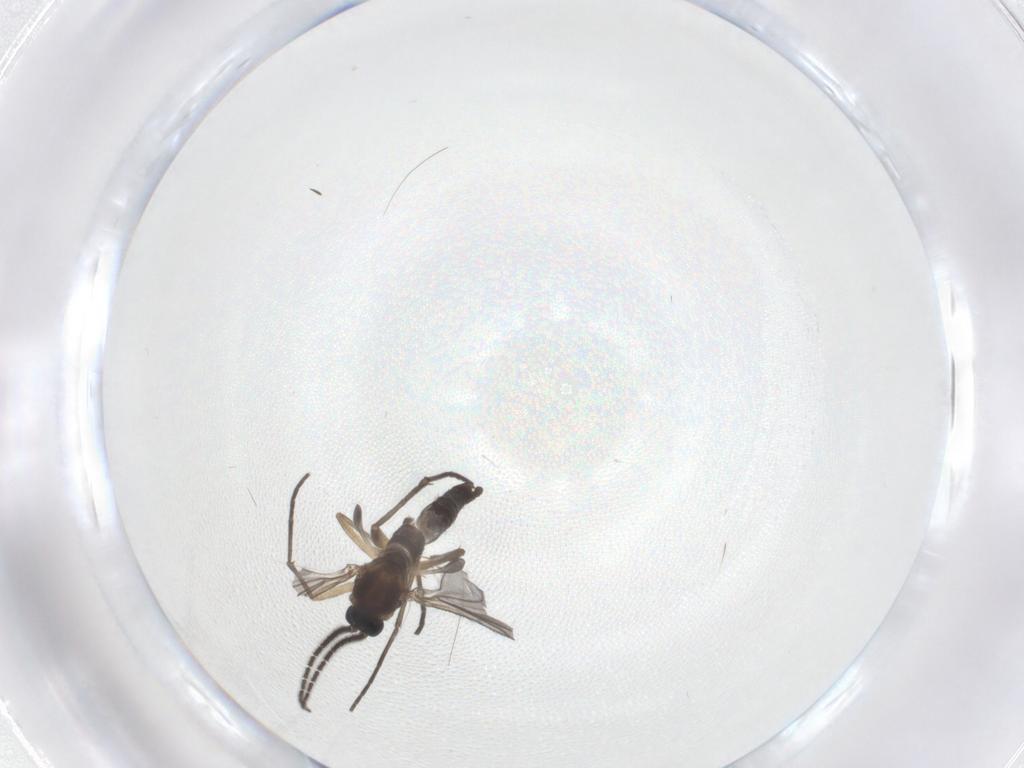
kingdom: Animalia
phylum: Arthropoda
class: Insecta
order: Diptera
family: Sciaridae
